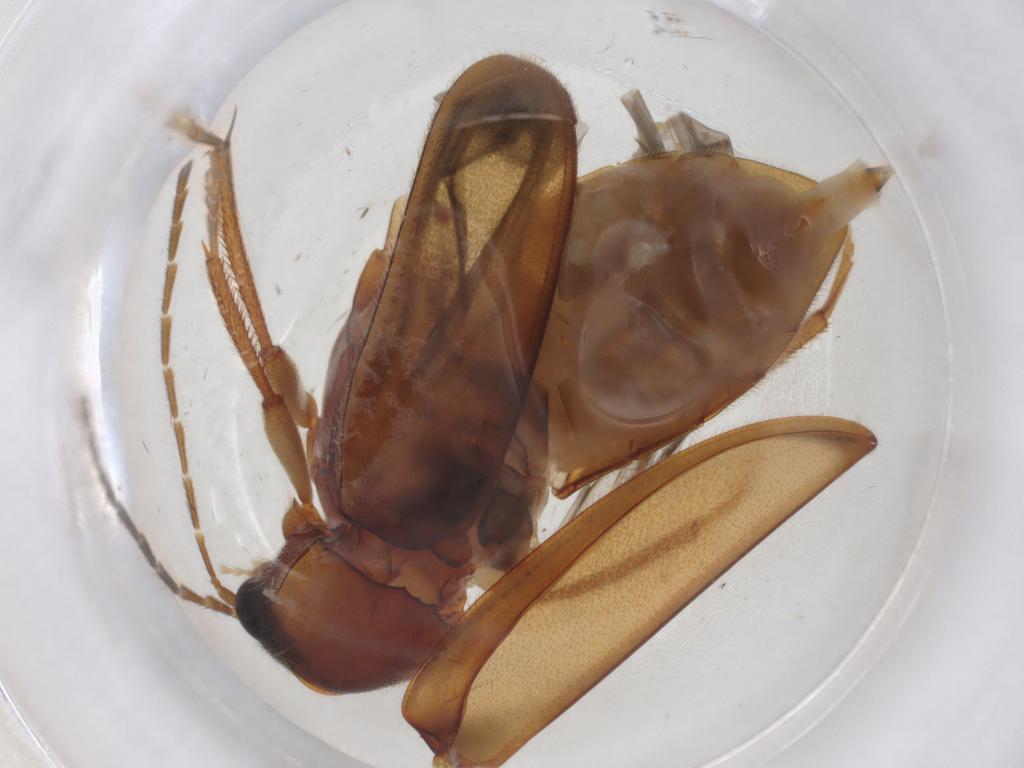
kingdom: Animalia
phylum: Arthropoda
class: Insecta
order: Coleoptera
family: Ptilodactylidae
